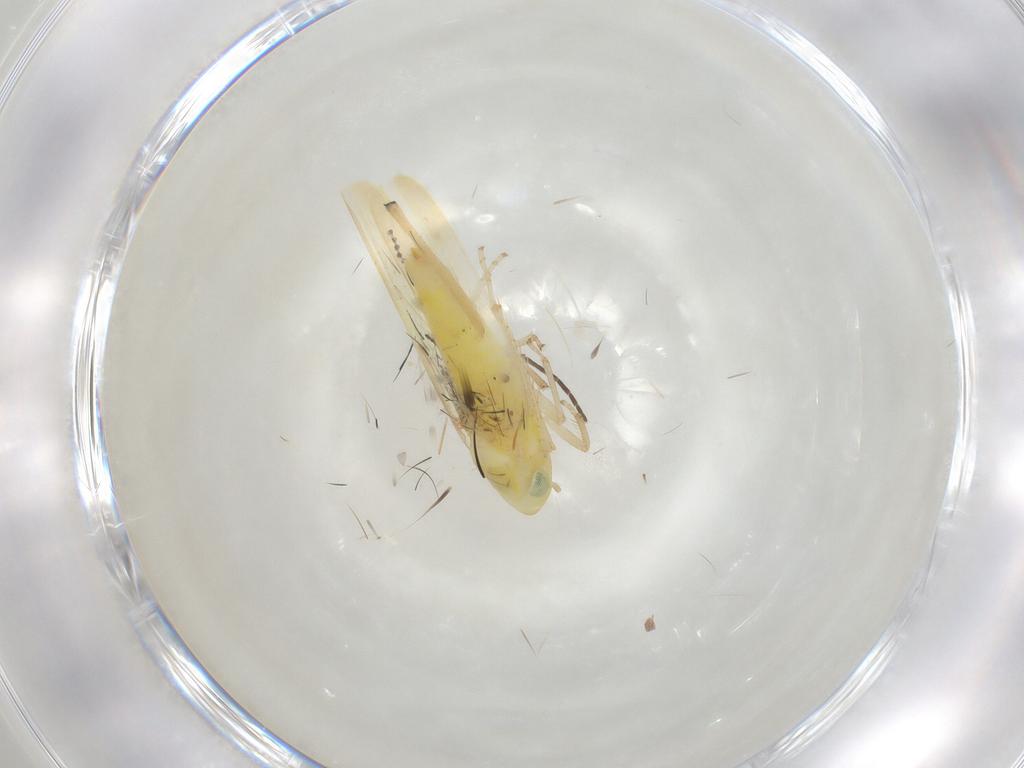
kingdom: Animalia
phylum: Arthropoda
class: Insecta
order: Hemiptera
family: Cicadellidae
